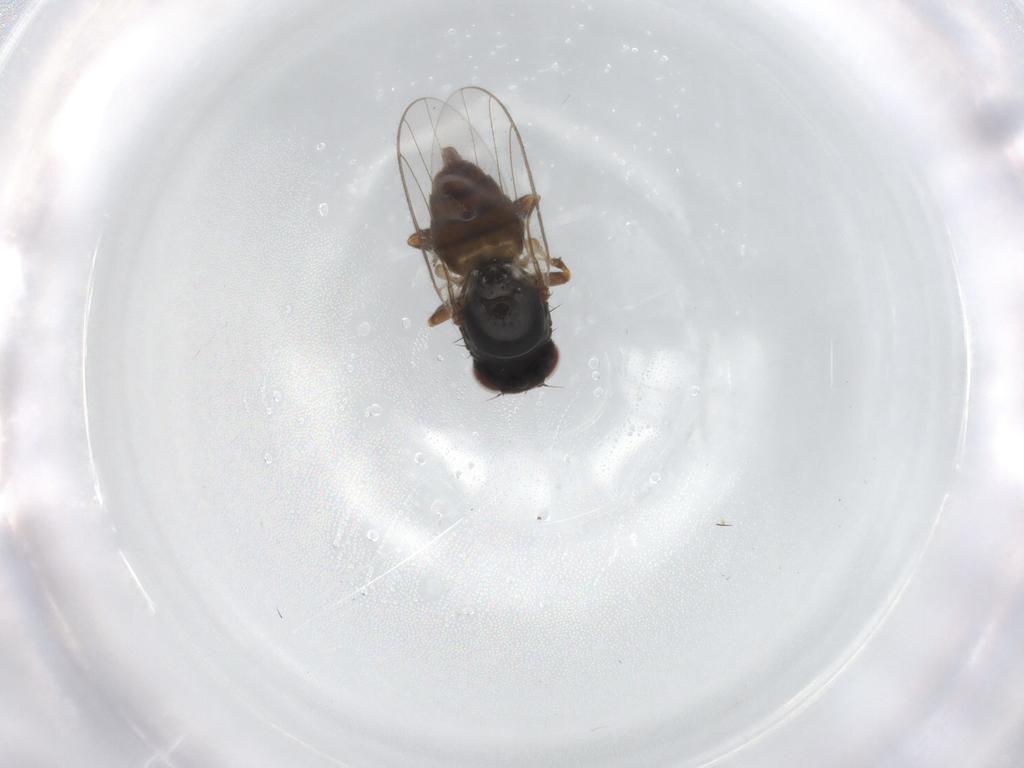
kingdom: Animalia
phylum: Arthropoda
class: Insecta
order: Diptera
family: Chloropidae
